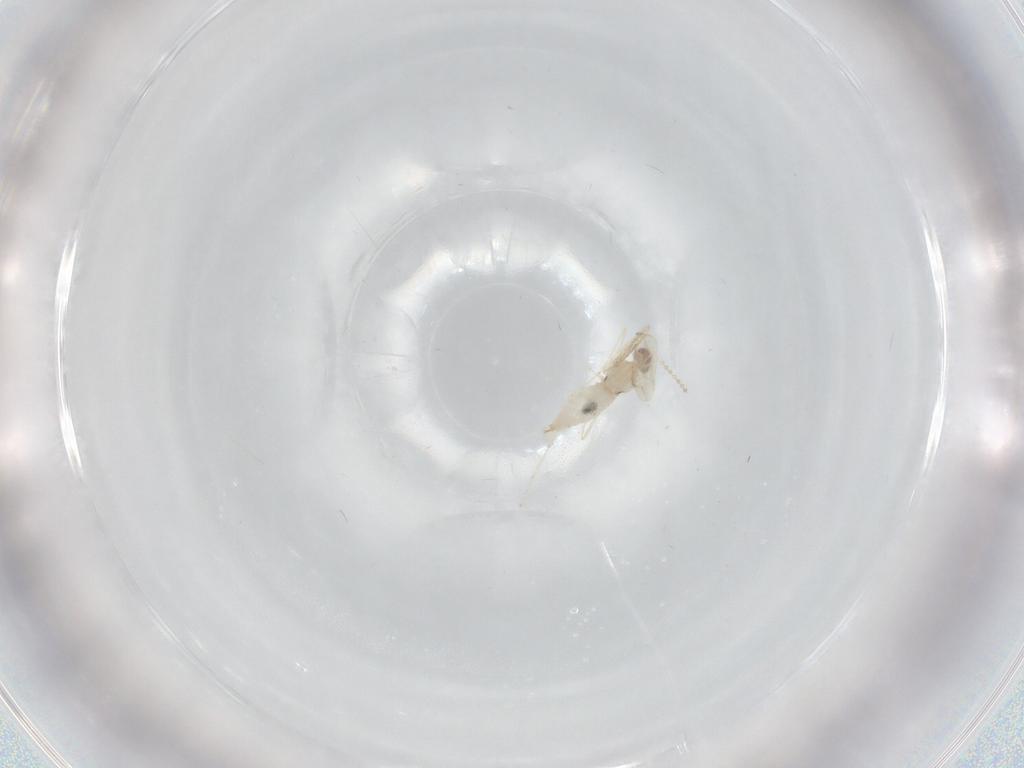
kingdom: Animalia
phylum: Arthropoda
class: Insecta
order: Diptera
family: Cecidomyiidae
